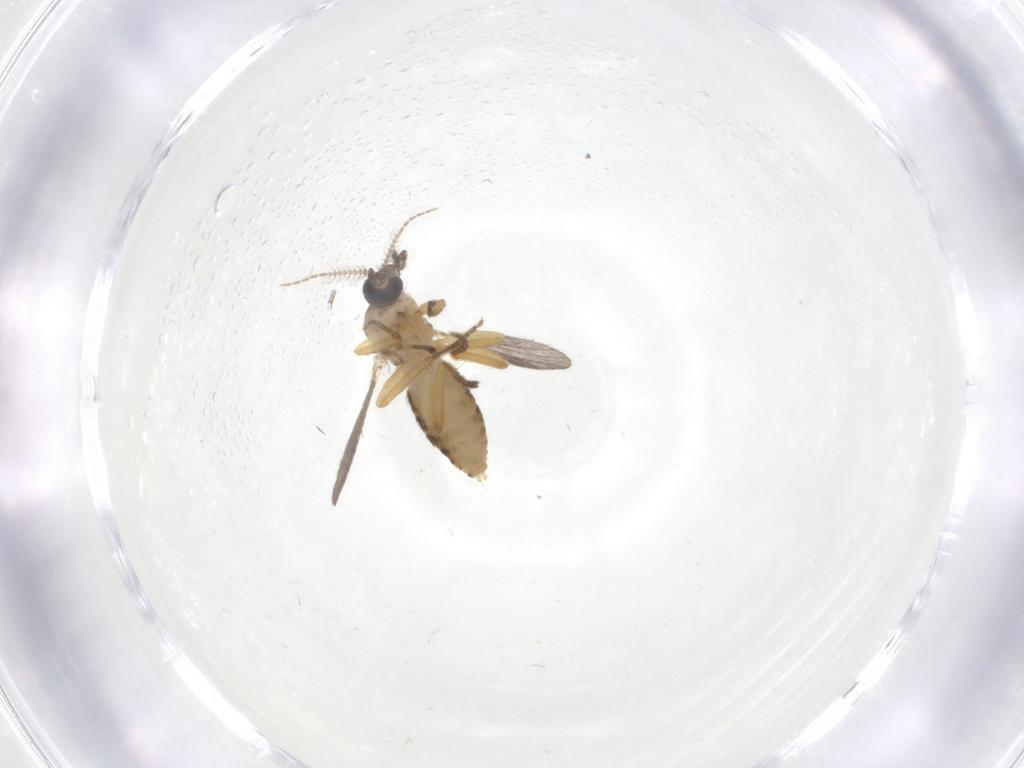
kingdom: Animalia
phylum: Arthropoda
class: Insecta
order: Diptera
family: Ceratopogonidae
